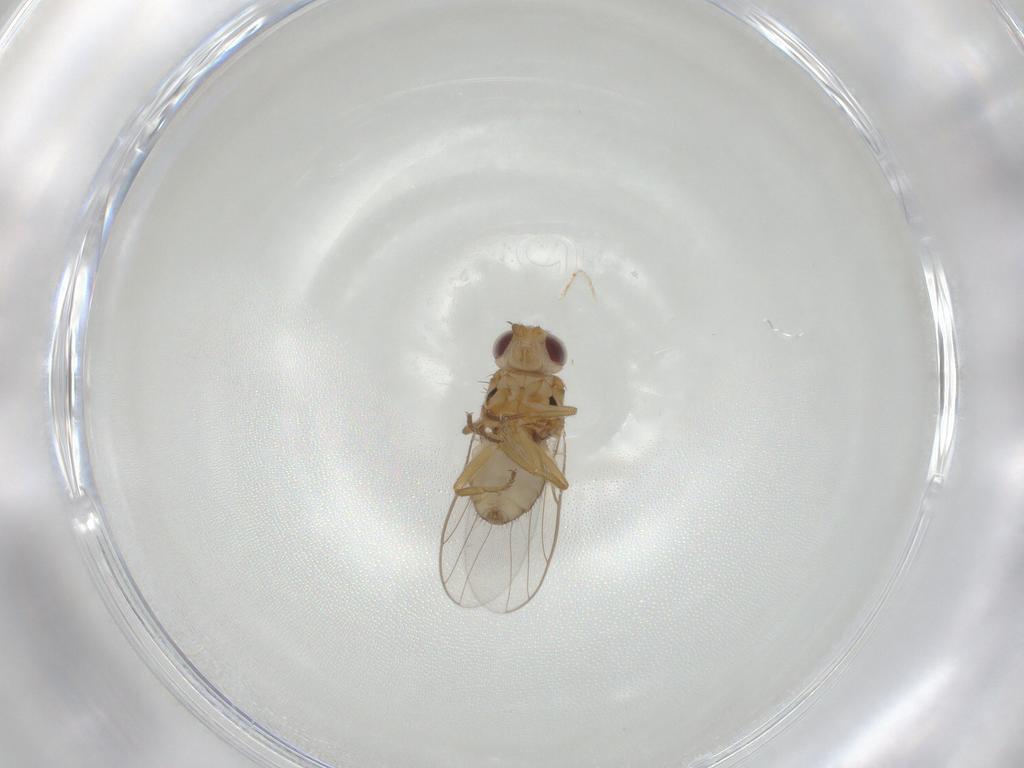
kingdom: Animalia
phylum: Arthropoda
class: Insecta
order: Diptera
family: Chloropidae
